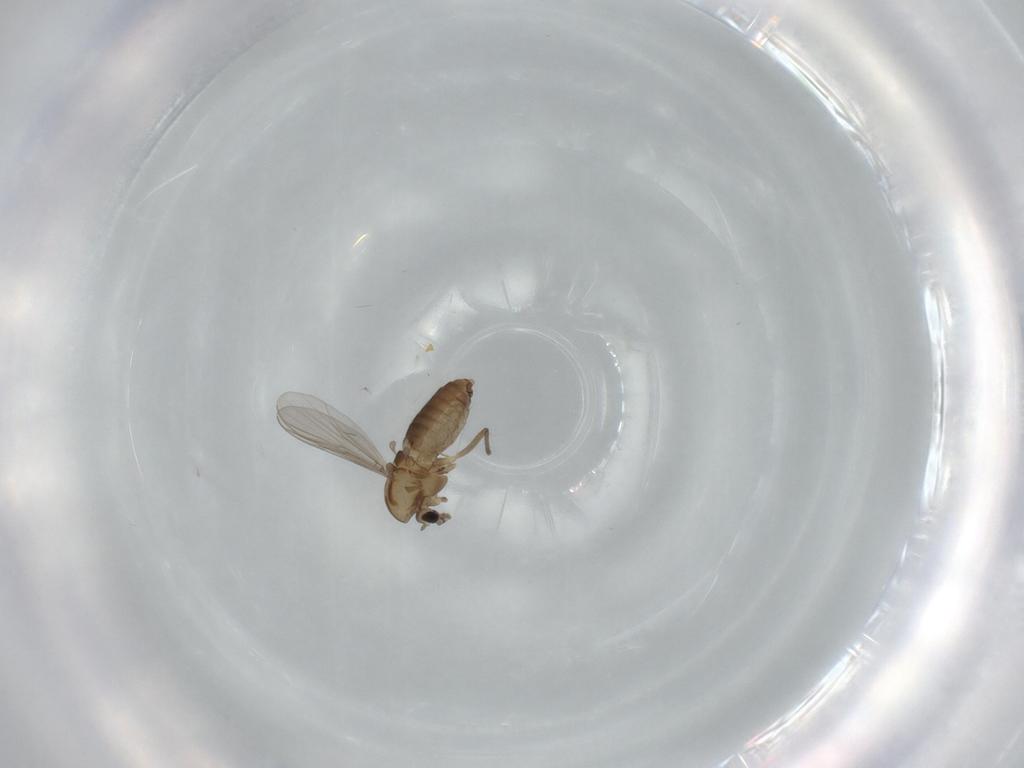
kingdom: Animalia
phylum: Arthropoda
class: Insecta
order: Diptera
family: Chironomidae
